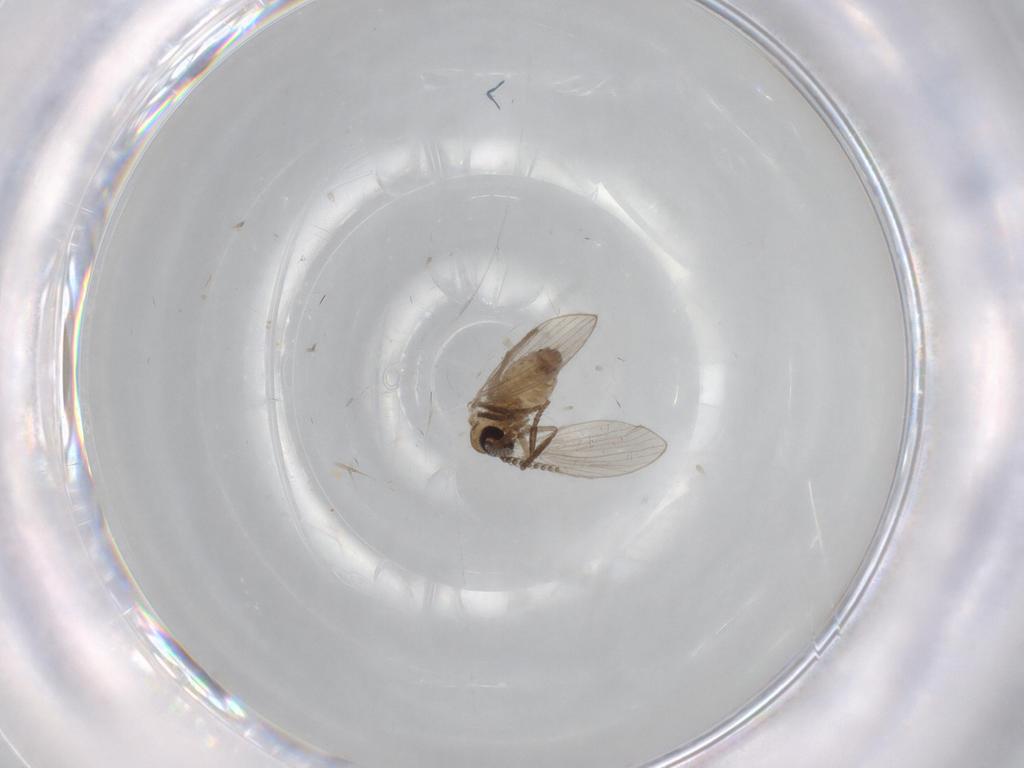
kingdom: Animalia
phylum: Arthropoda
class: Insecta
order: Diptera
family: Psychodidae
